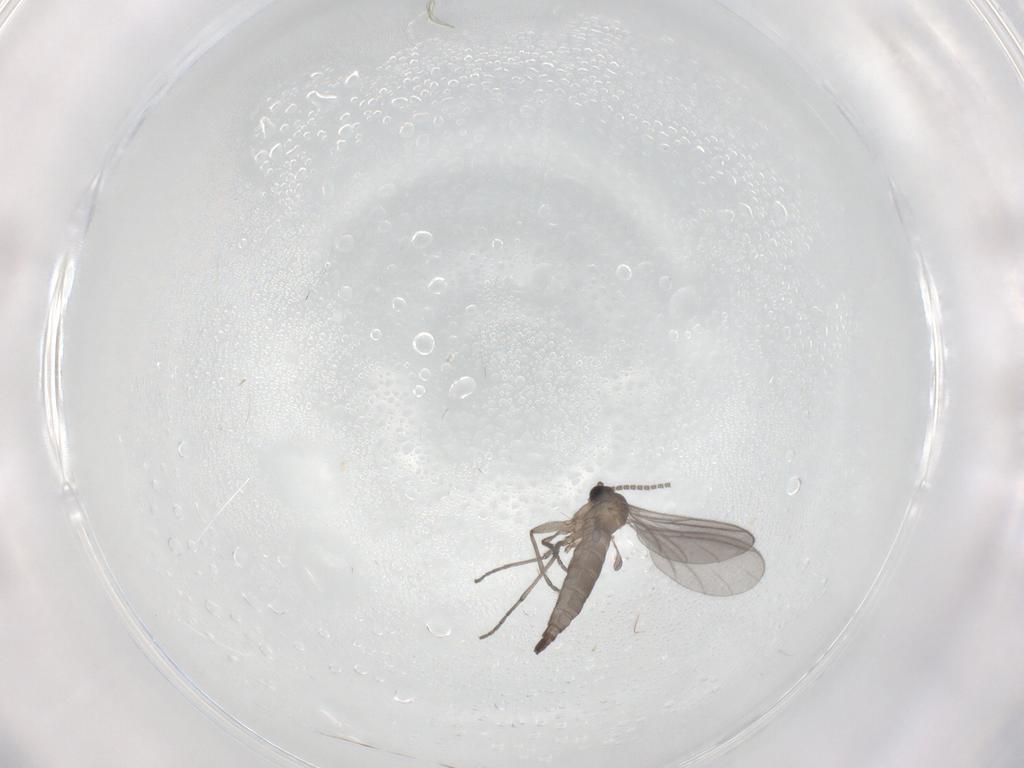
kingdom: Animalia
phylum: Arthropoda
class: Insecta
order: Diptera
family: Sciaridae
